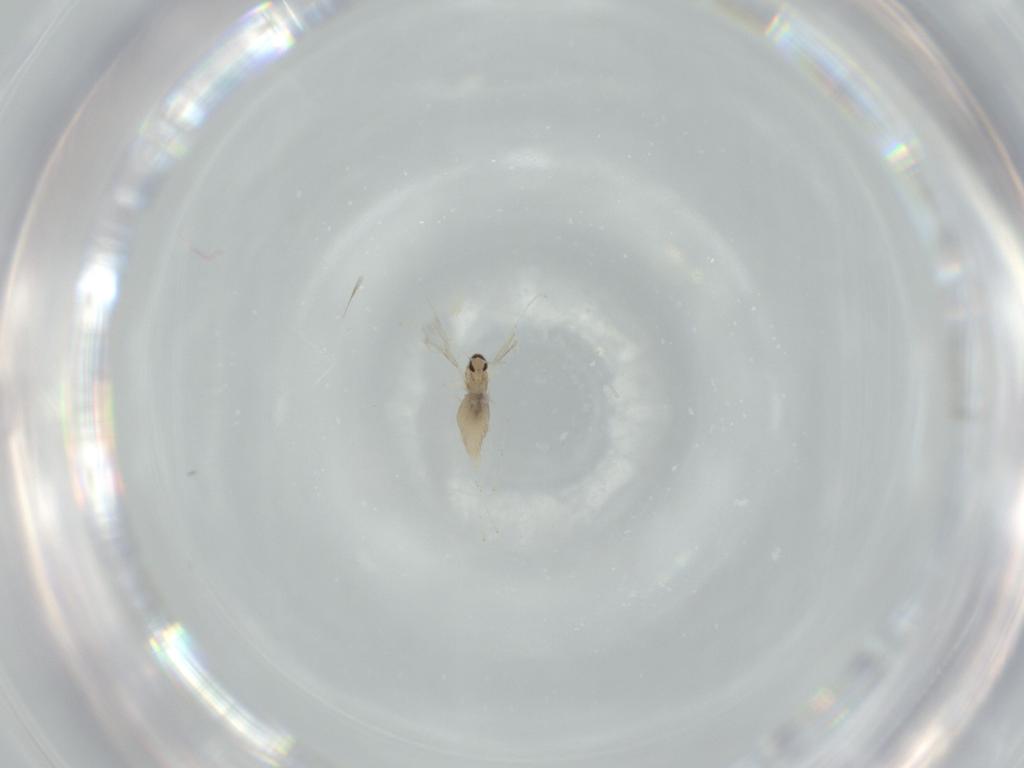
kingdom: Animalia
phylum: Arthropoda
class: Insecta
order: Diptera
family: Cecidomyiidae
